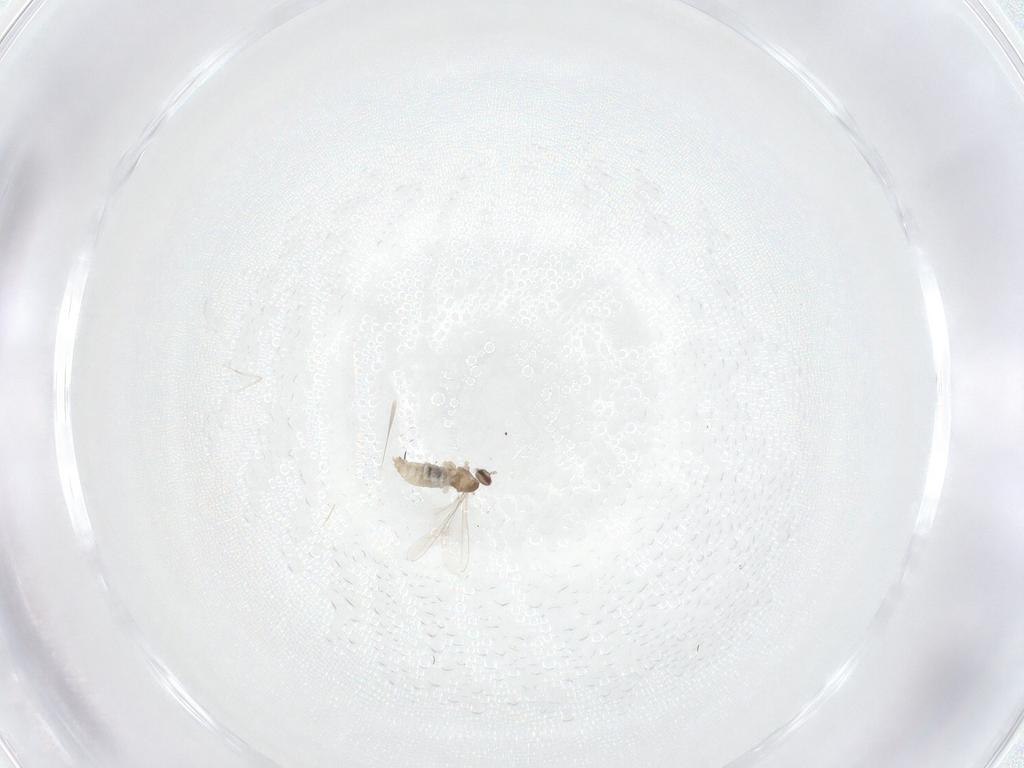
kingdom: Animalia
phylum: Arthropoda
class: Insecta
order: Diptera
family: Cecidomyiidae
